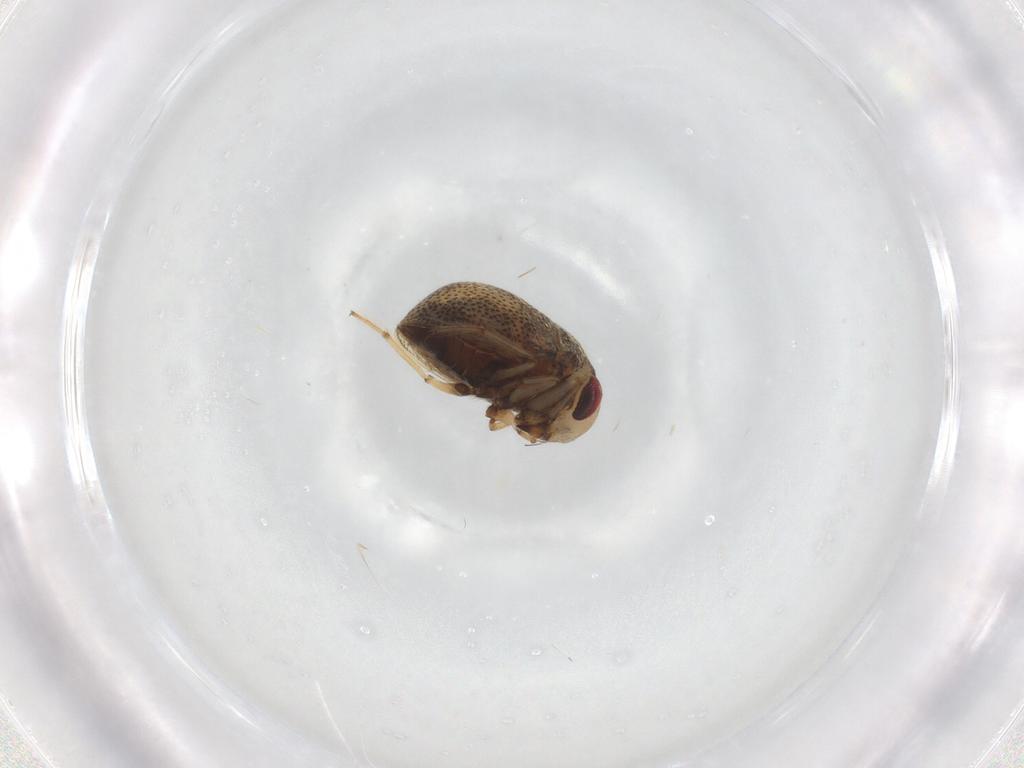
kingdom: Animalia
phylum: Arthropoda
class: Insecta
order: Hemiptera
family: Pleidae
